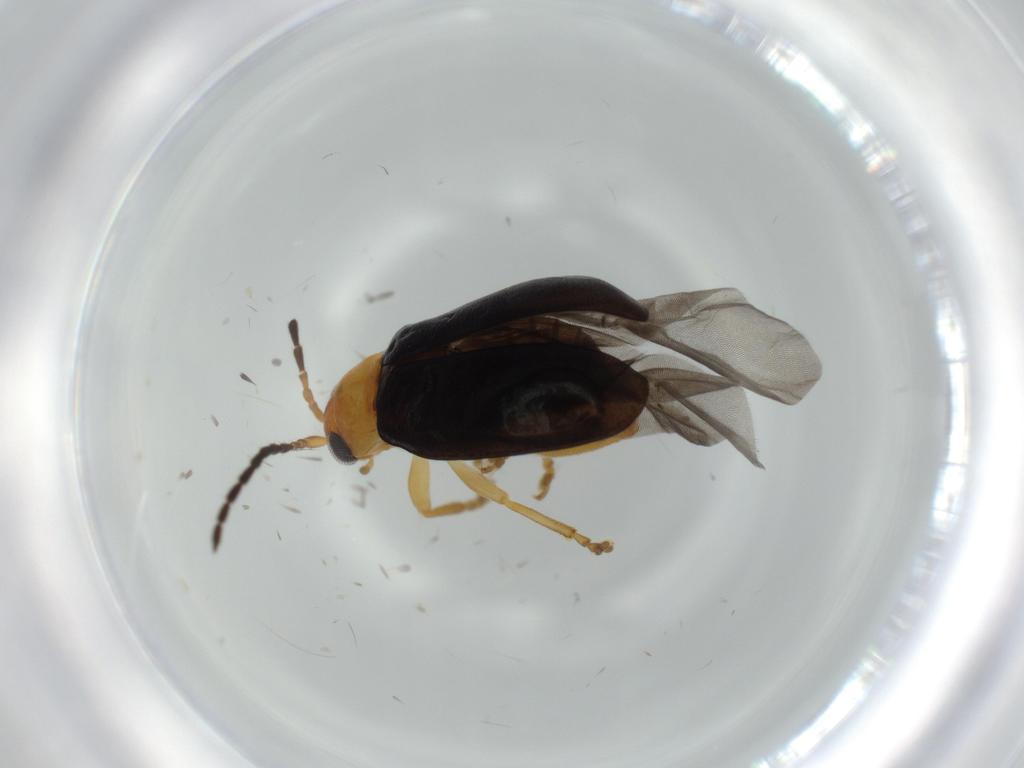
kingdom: Animalia
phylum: Arthropoda
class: Insecta
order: Coleoptera
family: Chrysomelidae
